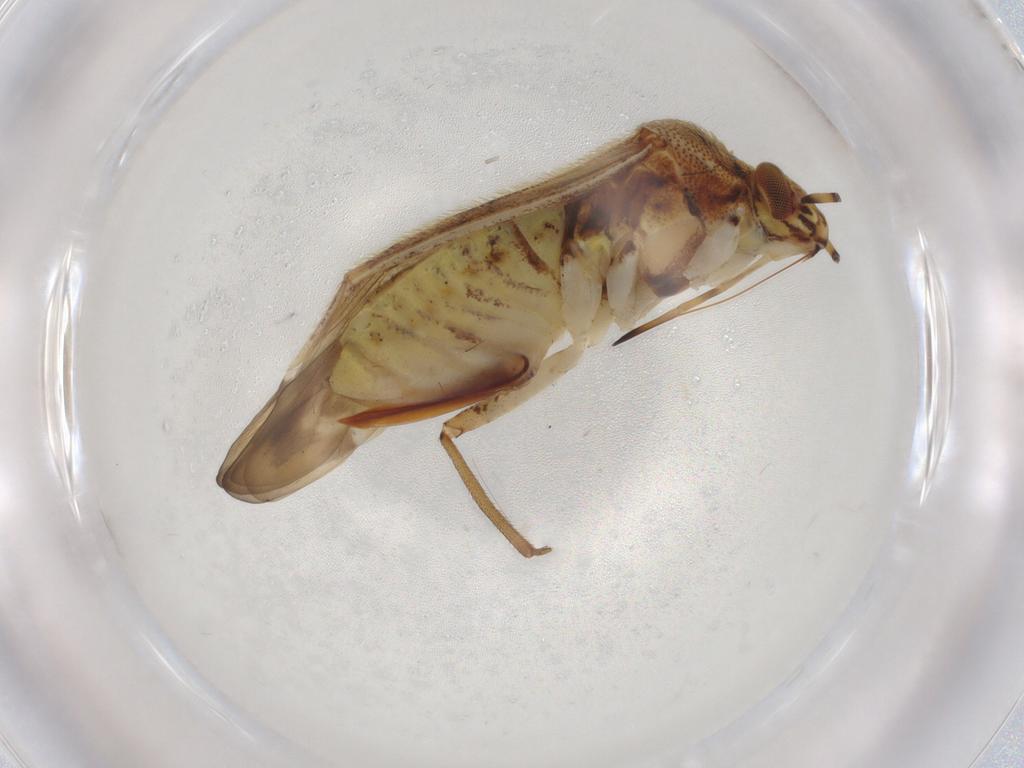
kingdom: Animalia
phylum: Arthropoda
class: Insecta
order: Hemiptera
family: Miridae
